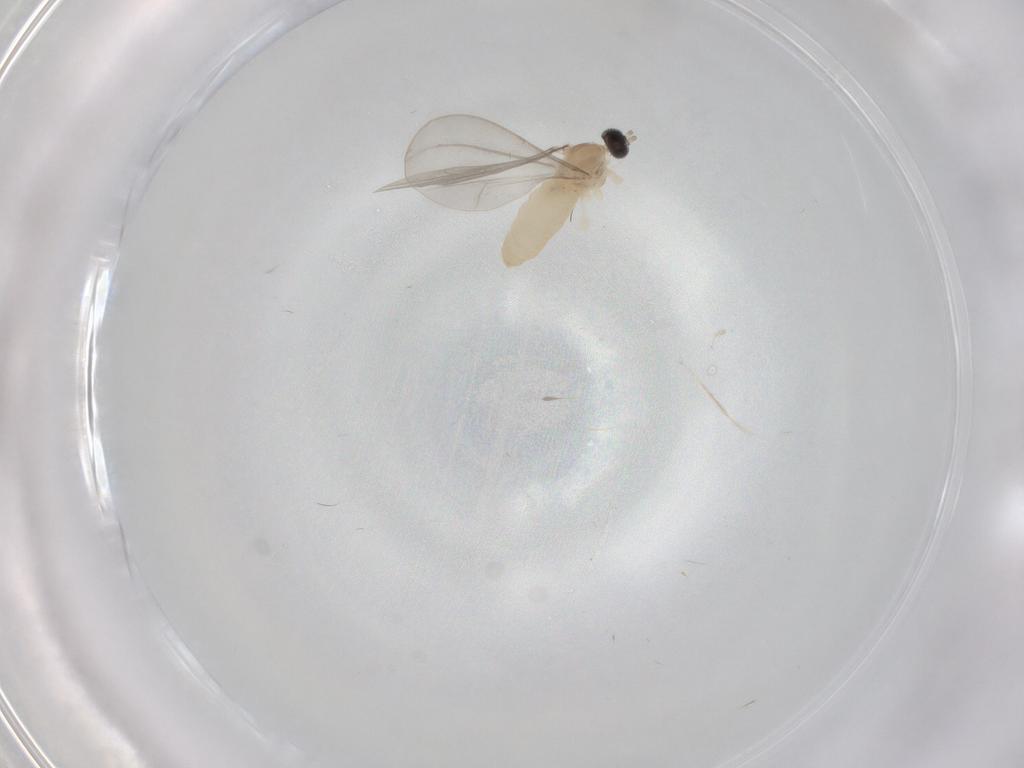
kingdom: Animalia
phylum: Arthropoda
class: Insecta
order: Diptera
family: Cecidomyiidae
